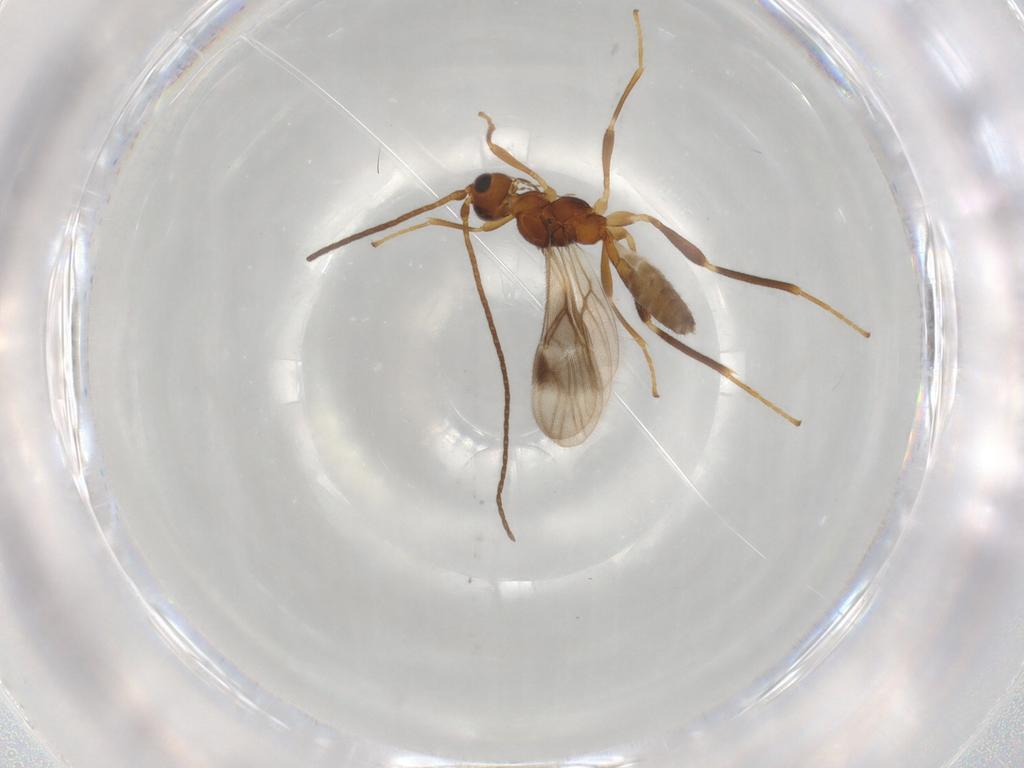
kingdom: Animalia
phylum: Arthropoda
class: Insecta
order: Hymenoptera
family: Braconidae
